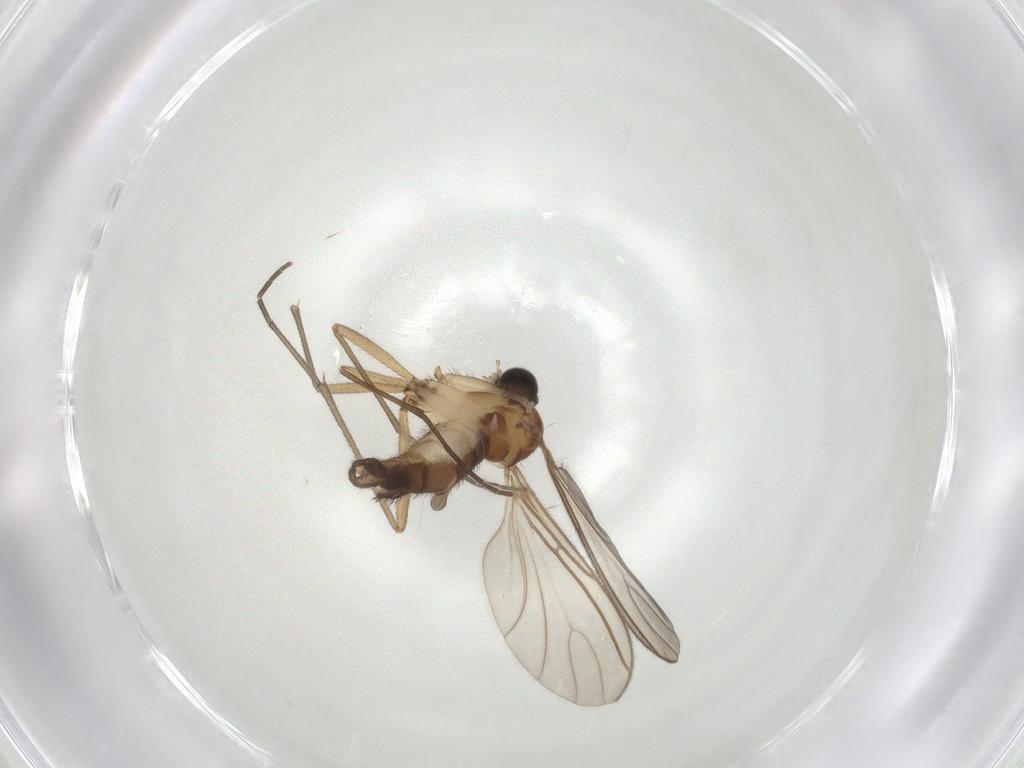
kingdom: Animalia
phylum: Arthropoda
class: Insecta
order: Diptera
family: Sciaridae
